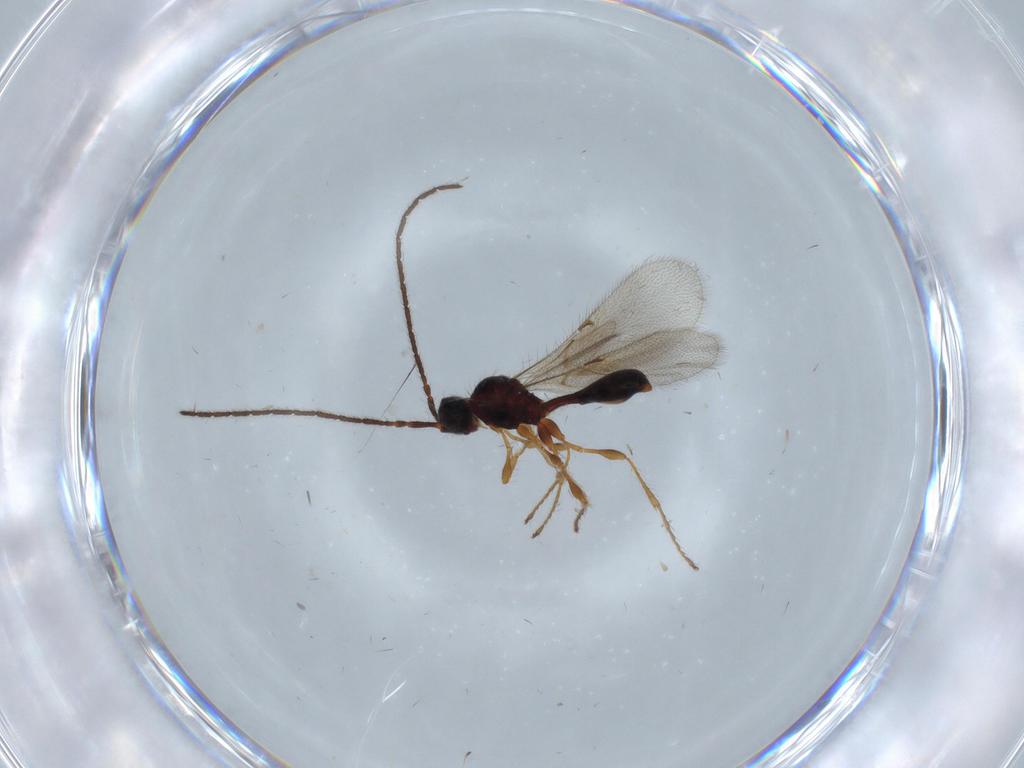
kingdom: Animalia
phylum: Arthropoda
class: Insecta
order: Hymenoptera
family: Diapriidae
